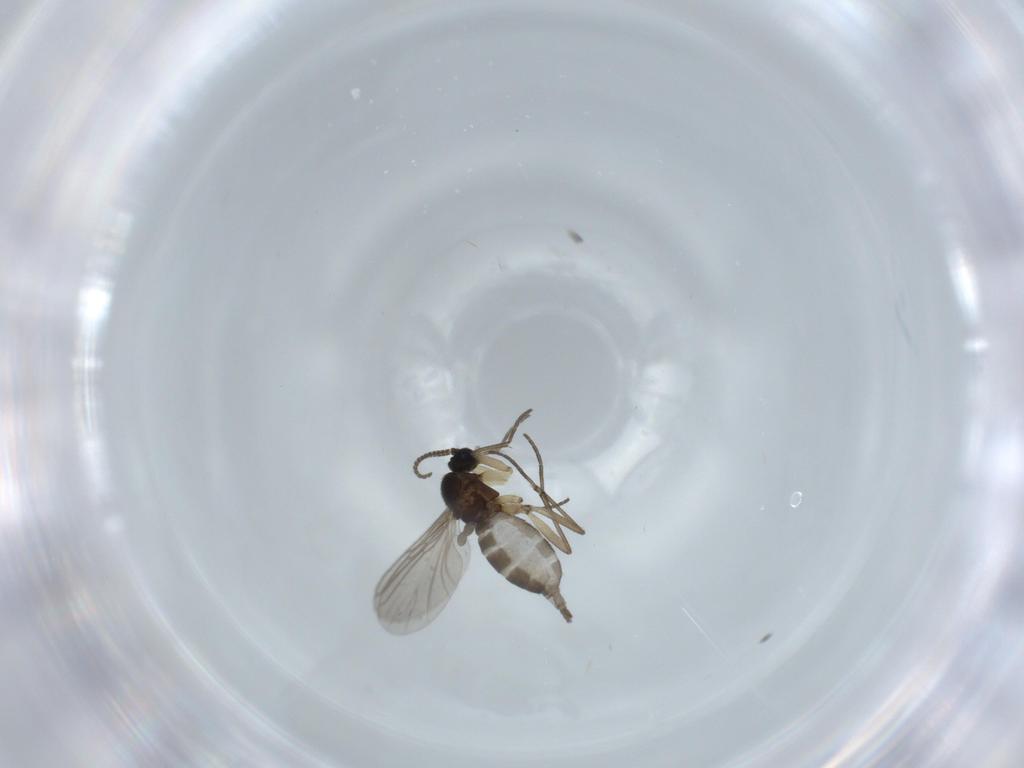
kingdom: Animalia
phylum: Arthropoda
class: Insecta
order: Diptera
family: Sciaridae
